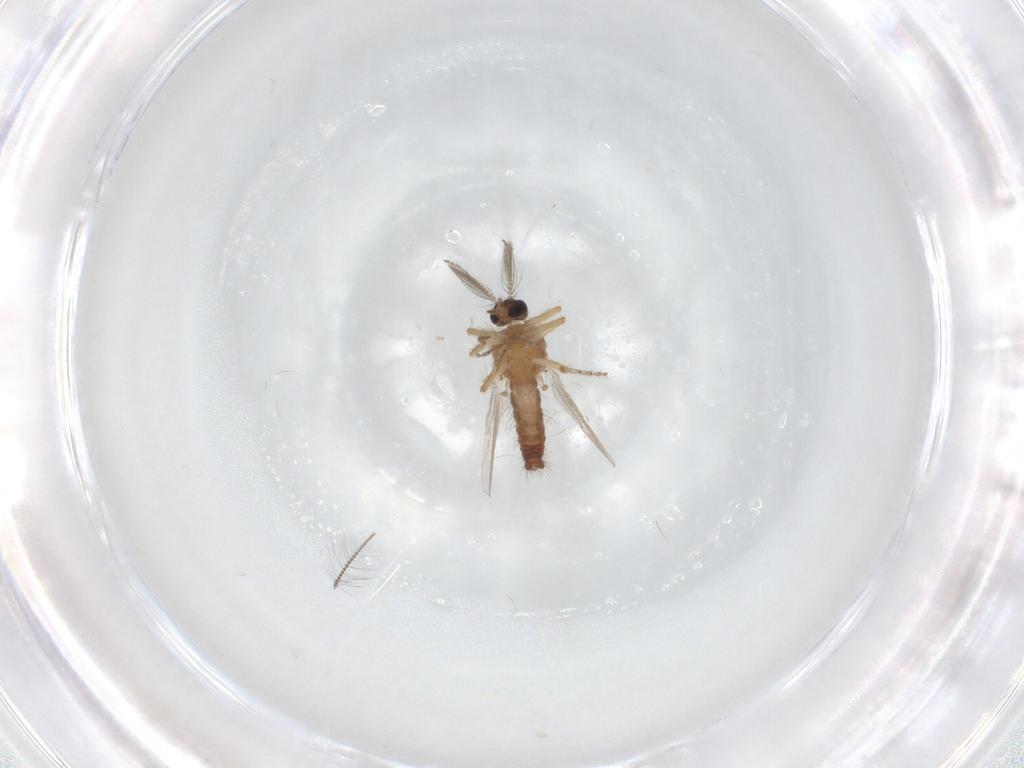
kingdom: Animalia
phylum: Arthropoda
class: Insecta
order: Diptera
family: Ceratopogonidae
